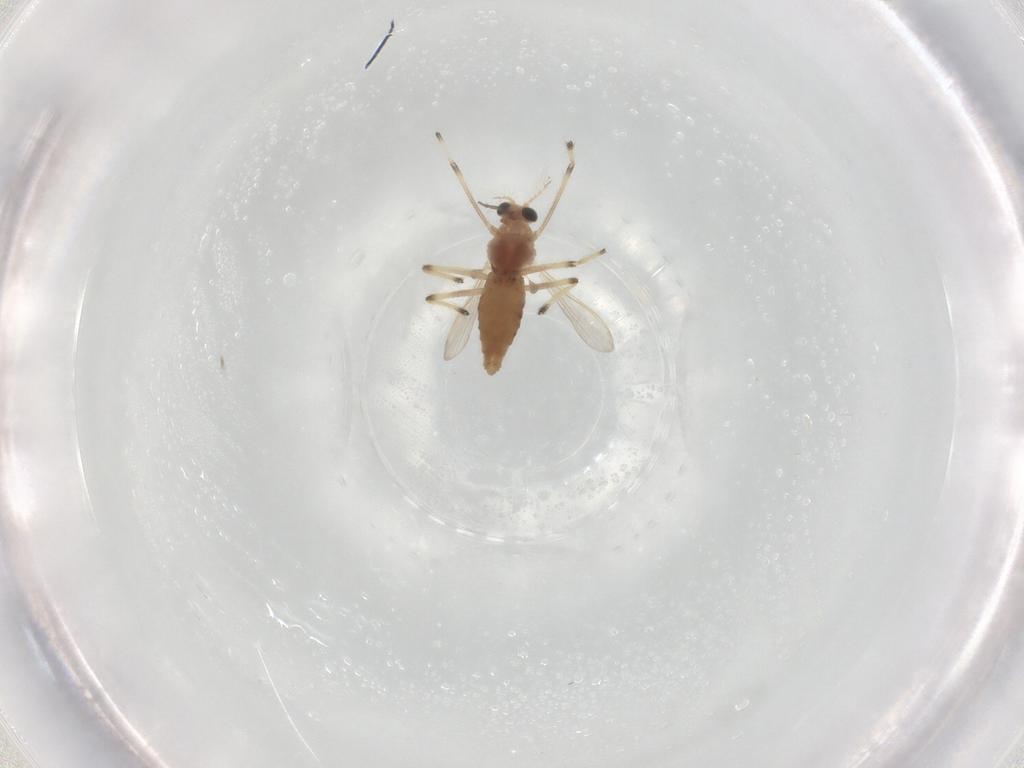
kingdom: Animalia
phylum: Arthropoda
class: Insecta
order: Diptera
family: Chironomidae
